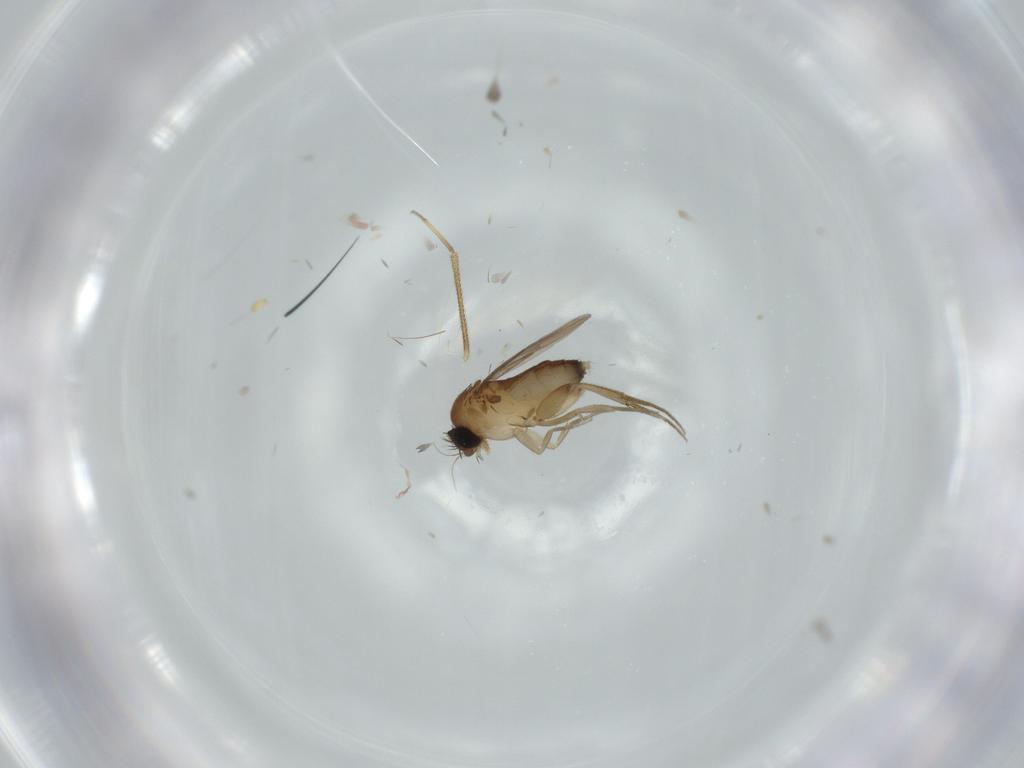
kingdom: Animalia
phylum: Arthropoda
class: Insecta
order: Diptera
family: Phoridae
